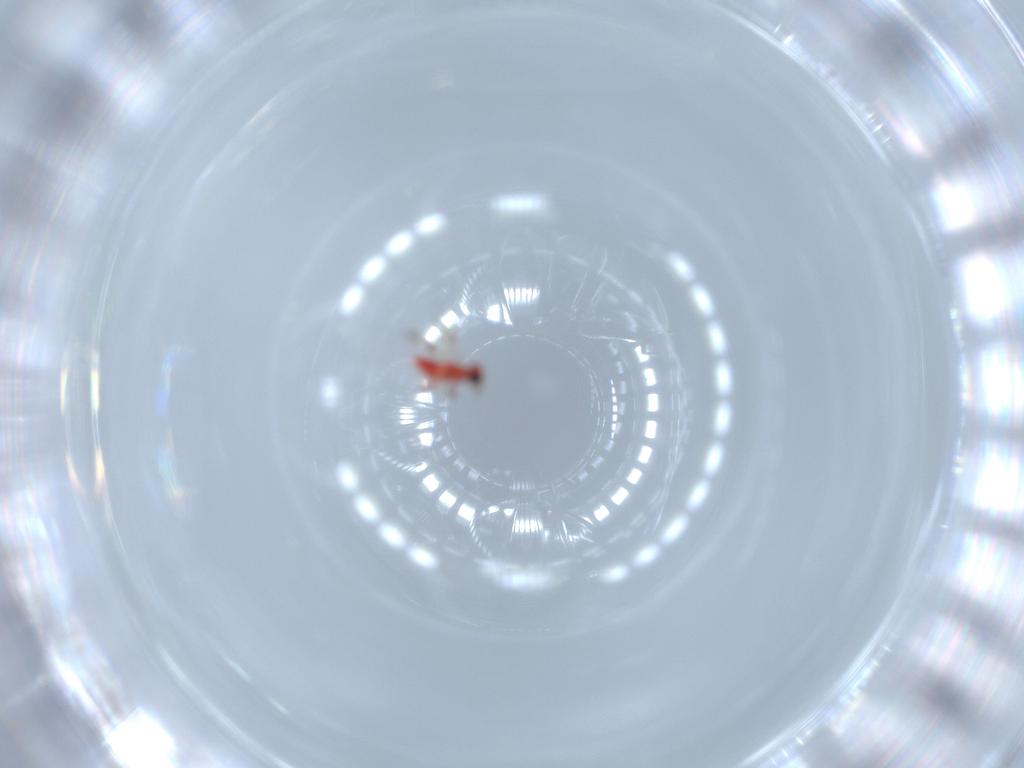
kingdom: Animalia
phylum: Arthropoda
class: Insecta
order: Hymenoptera
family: Trichogrammatidae
